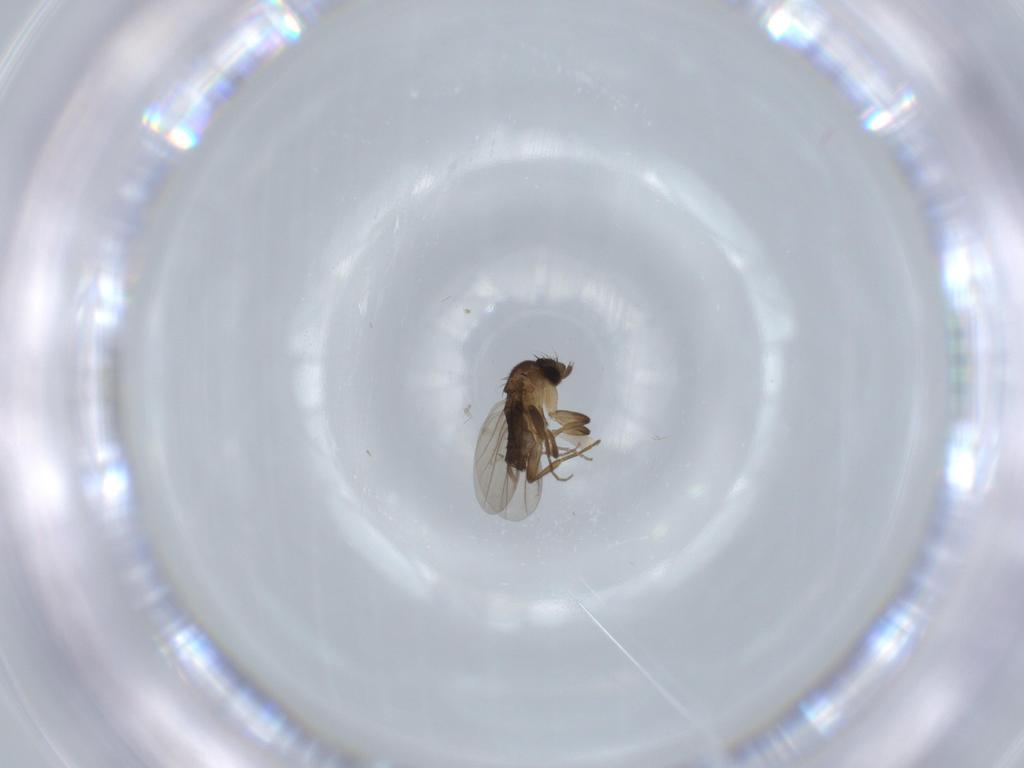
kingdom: Animalia
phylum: Arthropoda
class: Insecta
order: Diptera
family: Phoridae
